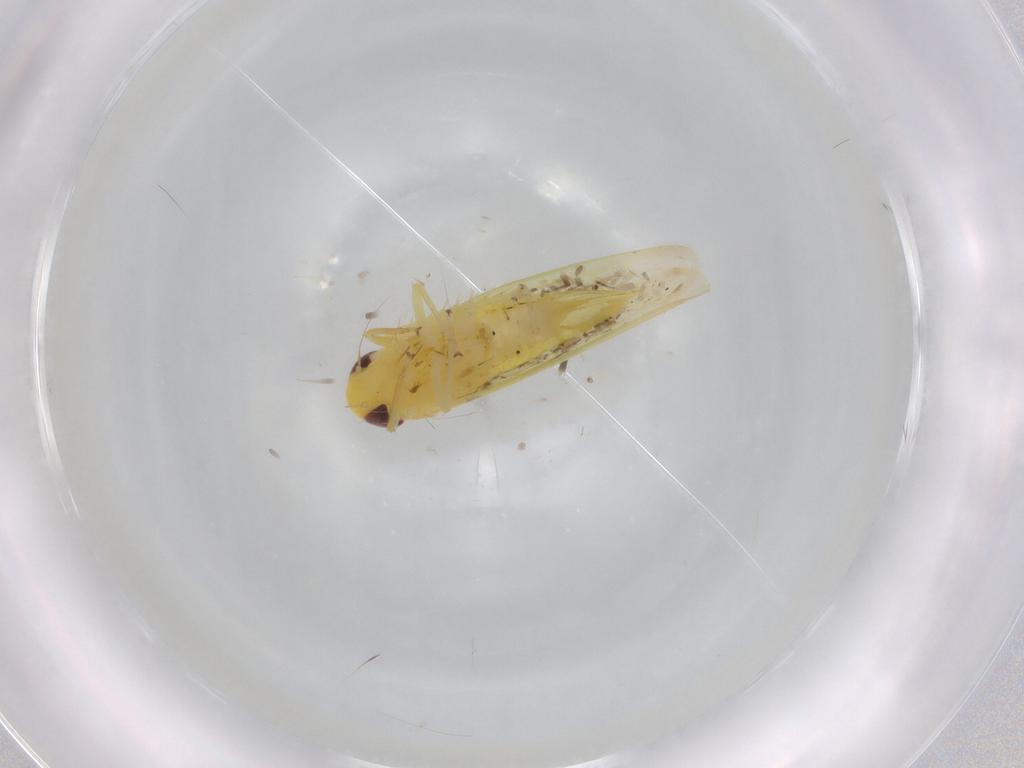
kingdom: Animalia
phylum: Arthropoda
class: Insecta
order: Hemiptera
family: Cicadellidae
